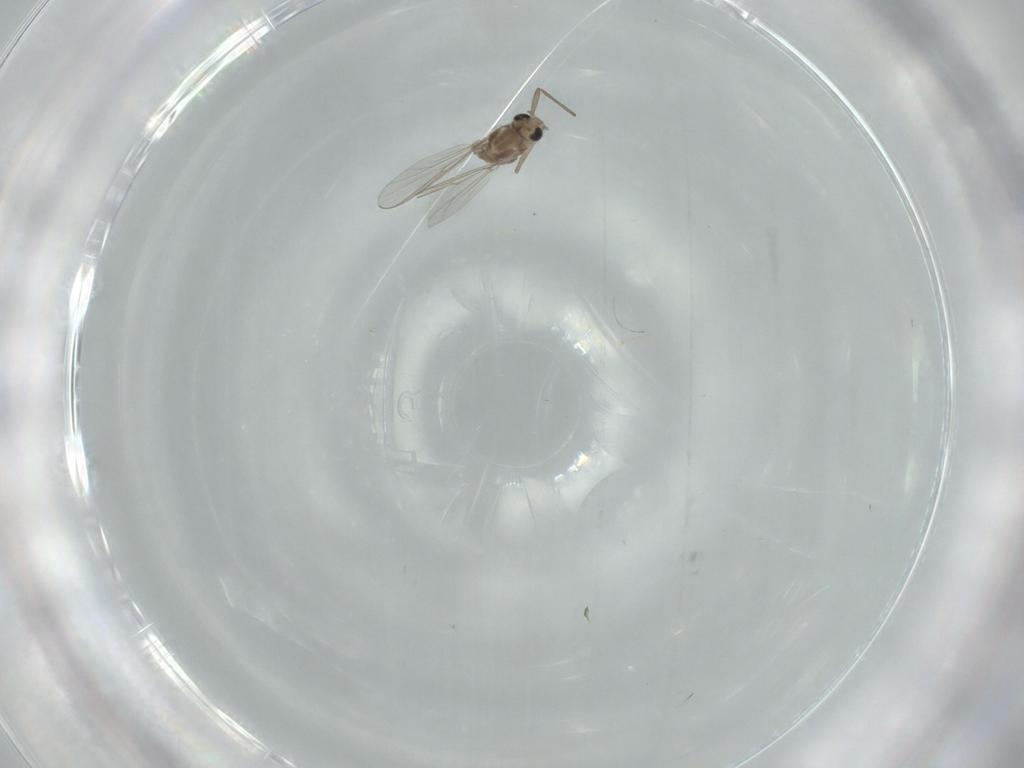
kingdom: Animalia
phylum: Arthropoda
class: Insecta
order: Diptera
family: Chironomidae
